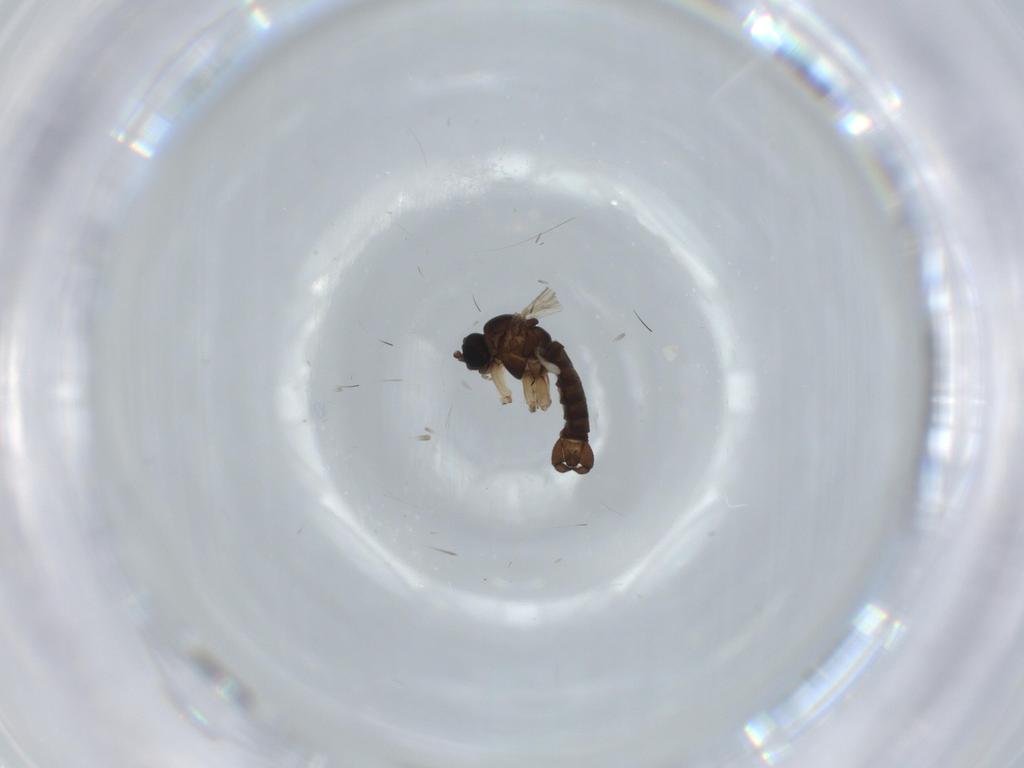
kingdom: Animalia
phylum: Arthropoda
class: Insecta
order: Diptera
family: Sciaridae
